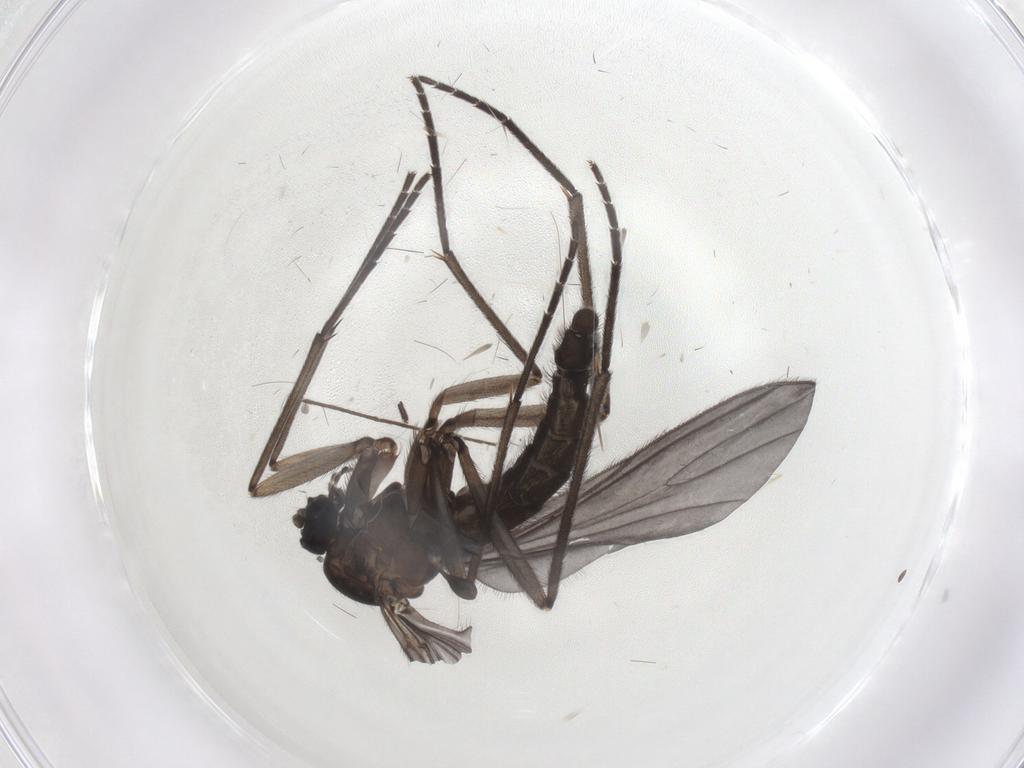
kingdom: Animalia
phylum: Arthropoda
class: Insecta
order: Diptera
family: Sciaridae
